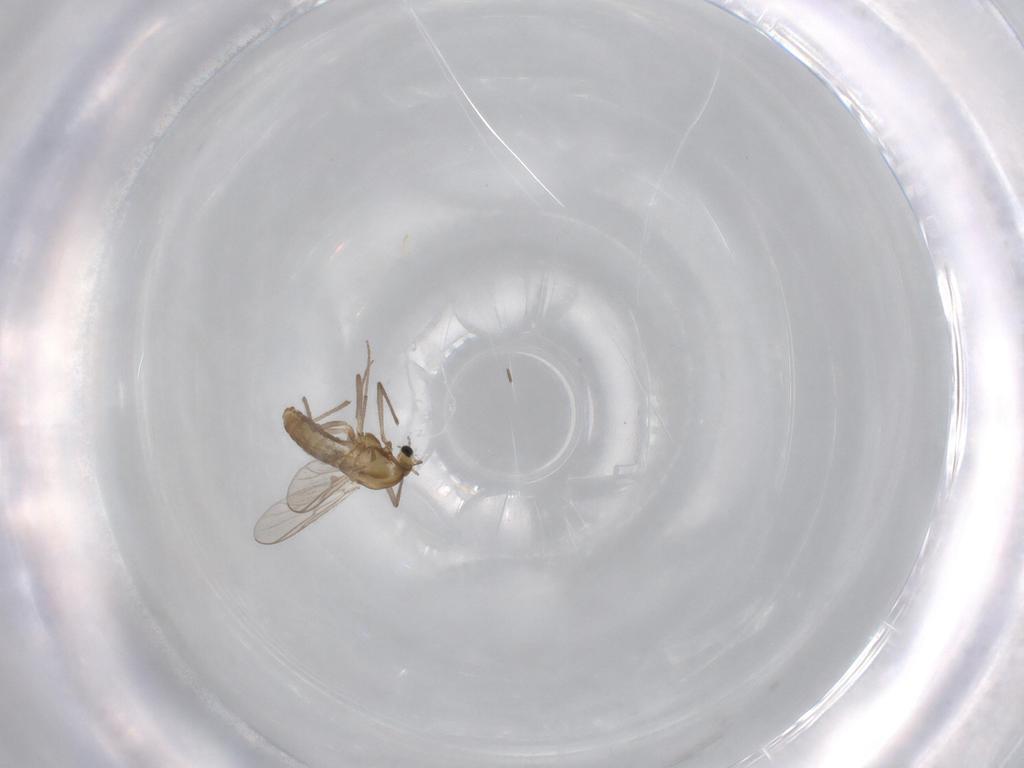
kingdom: Animalia
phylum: Arthropoda
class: Insecta
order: Diptera
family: Chironomidae
